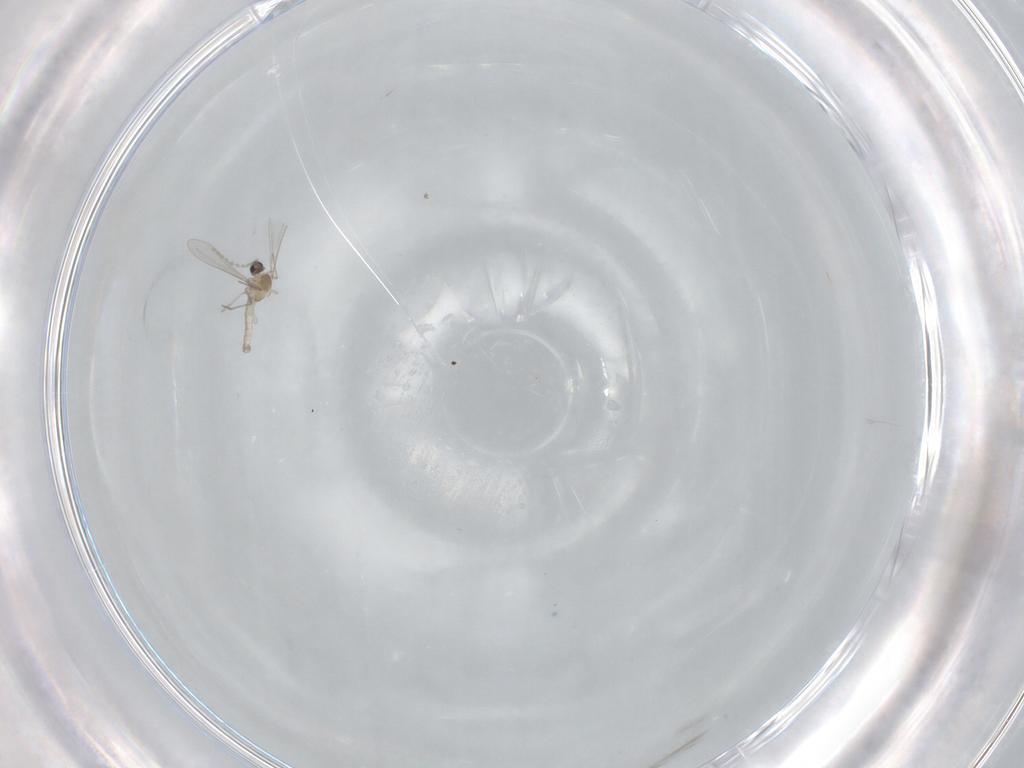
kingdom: Animalia
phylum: Arthropoda
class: Insecta
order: Diptera
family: Cecidomyiidae
